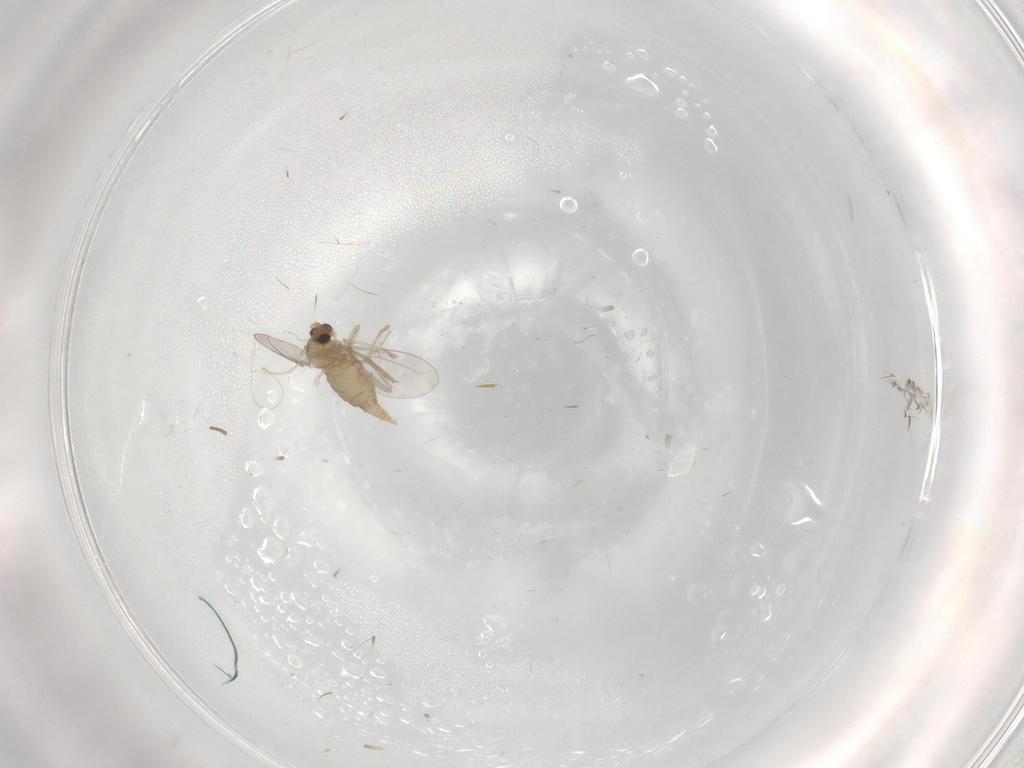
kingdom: Animalia
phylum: Arthropoda
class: Insecta
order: Diptera
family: Cecidomyiidae
